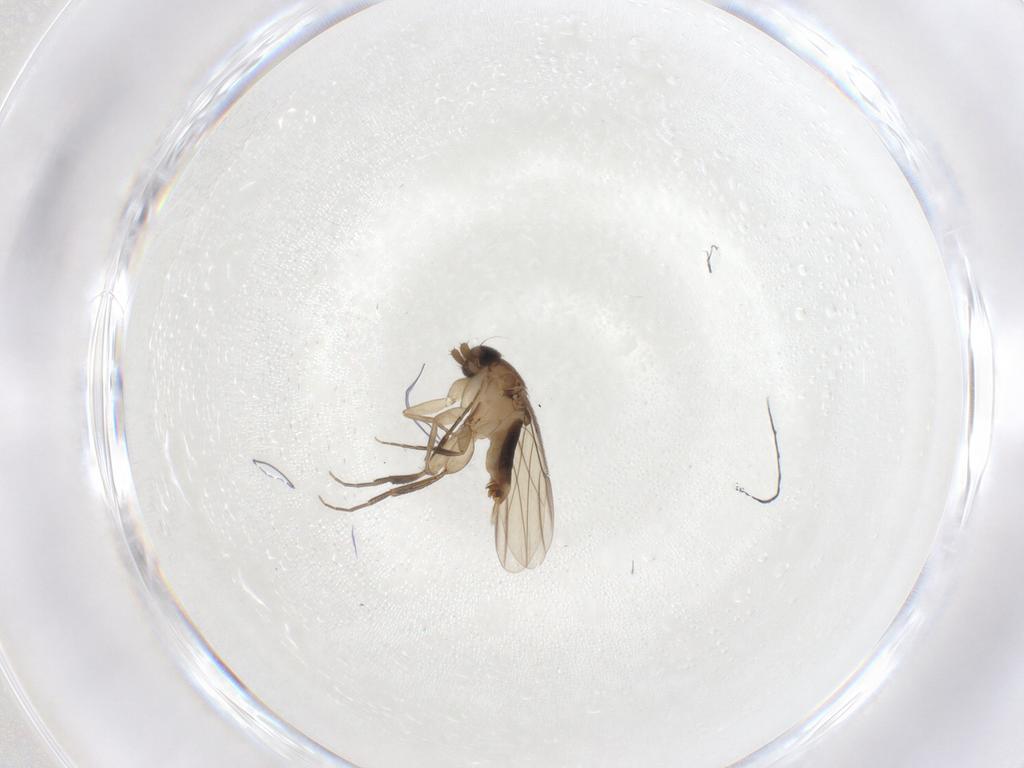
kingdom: Animalia
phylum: Arthropoda
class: Insecta
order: Diptera
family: Phoridae
